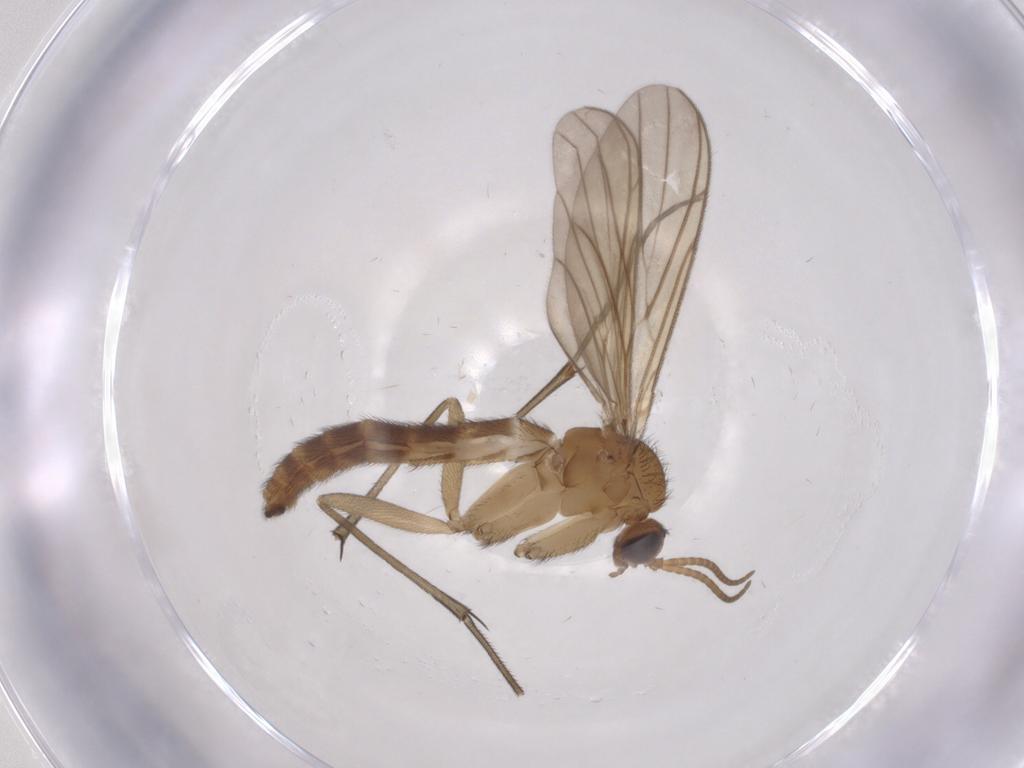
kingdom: Animalia
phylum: Arthropoda
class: Insecta
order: Diptera
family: Keroplatidae
